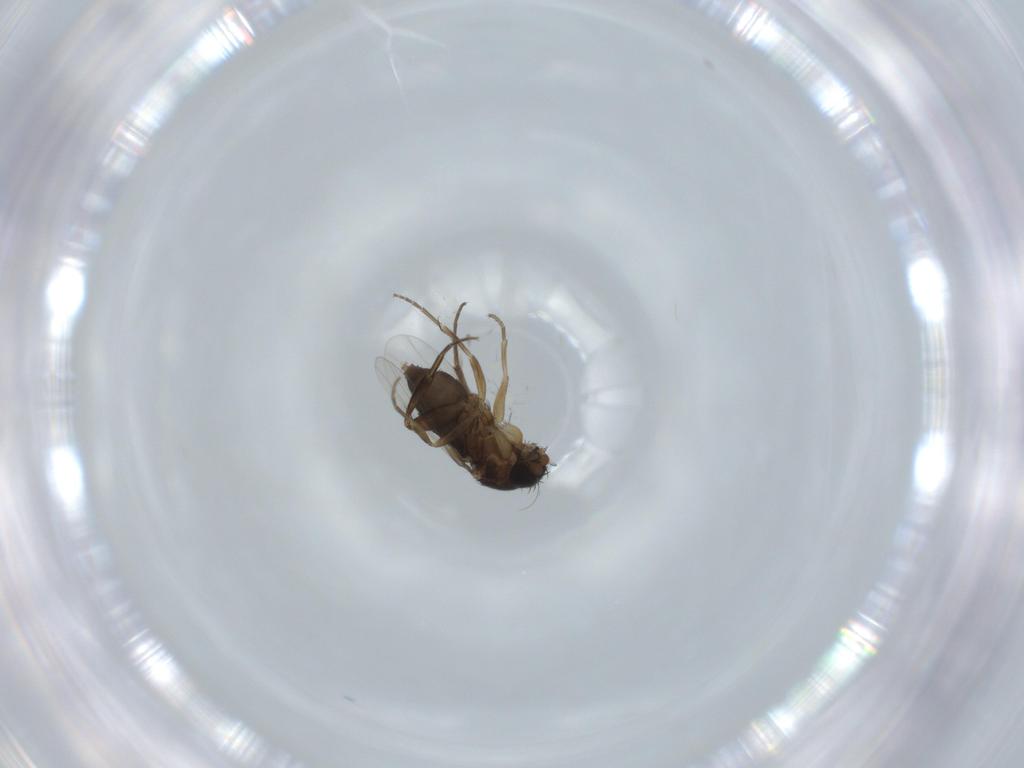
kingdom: Animalia
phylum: Arthropoda
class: Insecta
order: Diptera
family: Phoridae
